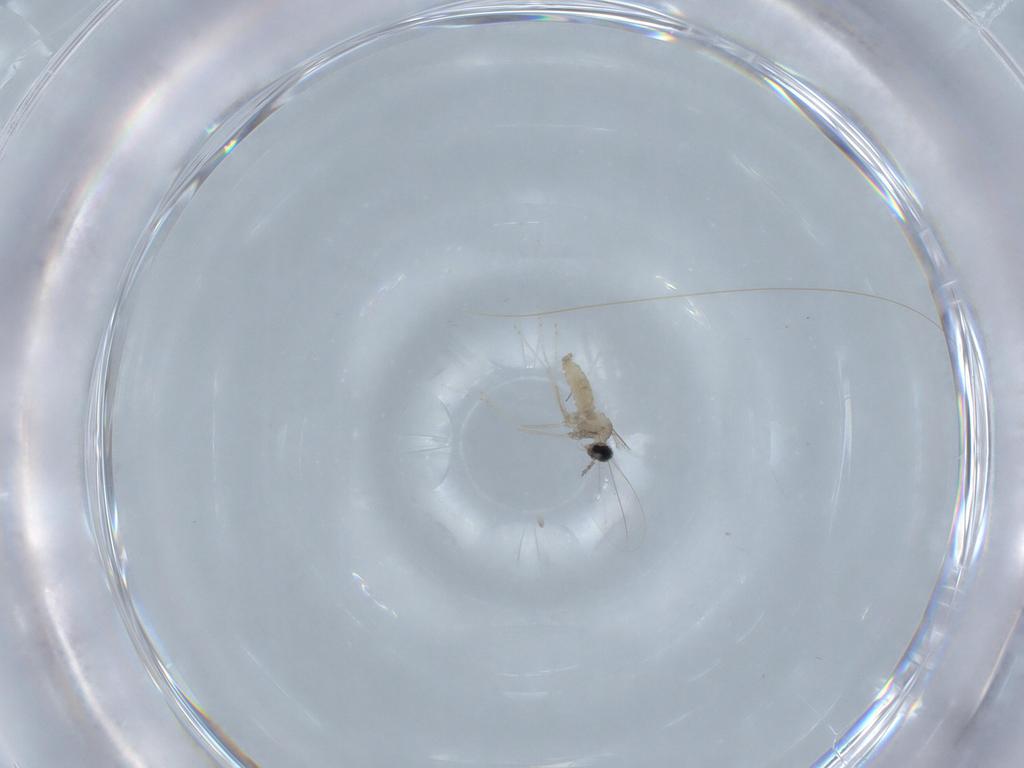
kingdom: Animalia
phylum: Arthropoda
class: Insecta
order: Diptera
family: Cecidomyiidae
